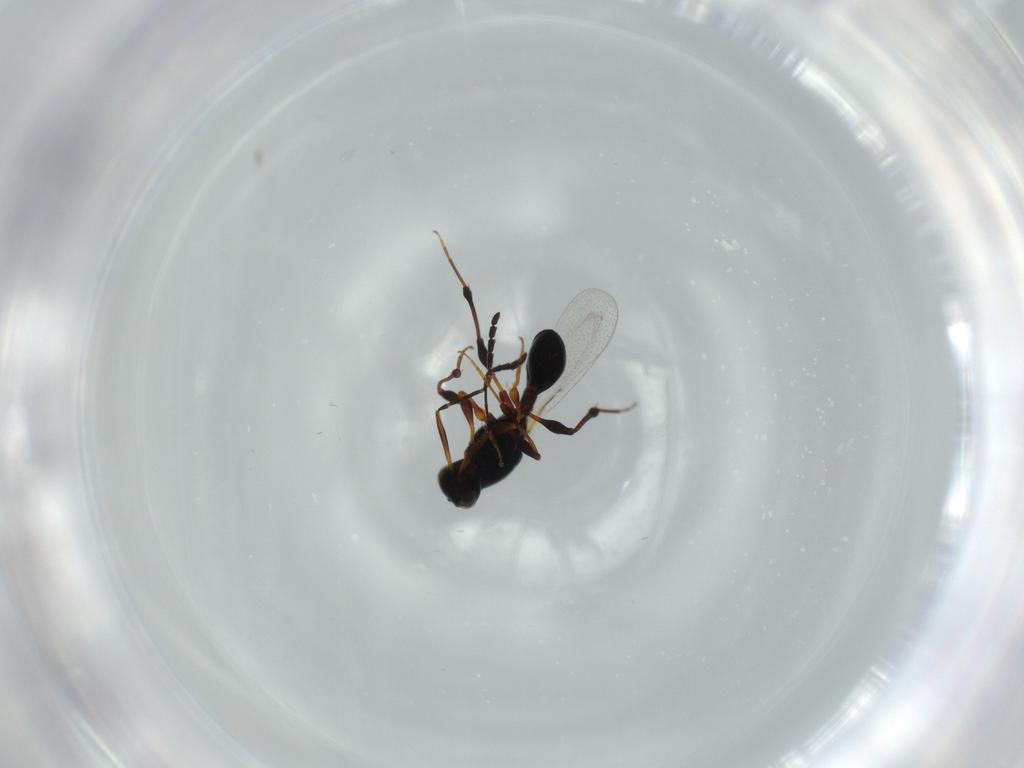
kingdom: Animalia
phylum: Arthropoda
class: Insecta
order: Hymenoptera
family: Platygastridae
